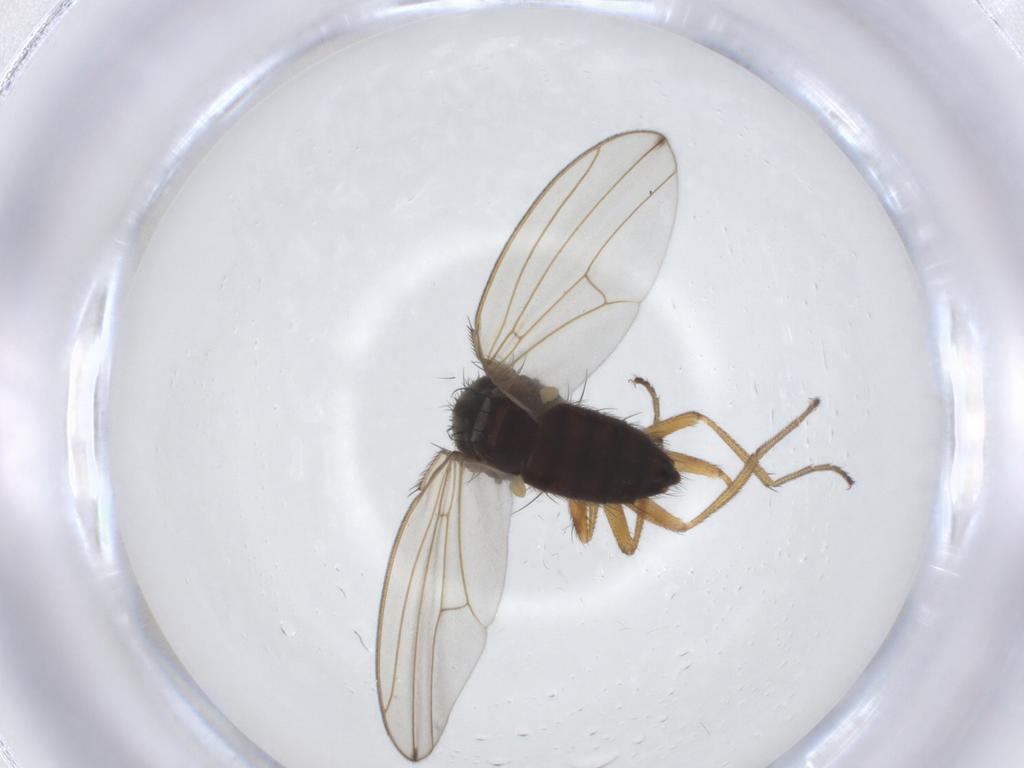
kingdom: Animalia
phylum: Arthropoda
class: Insecta
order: Diptera
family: Drosophilidae
